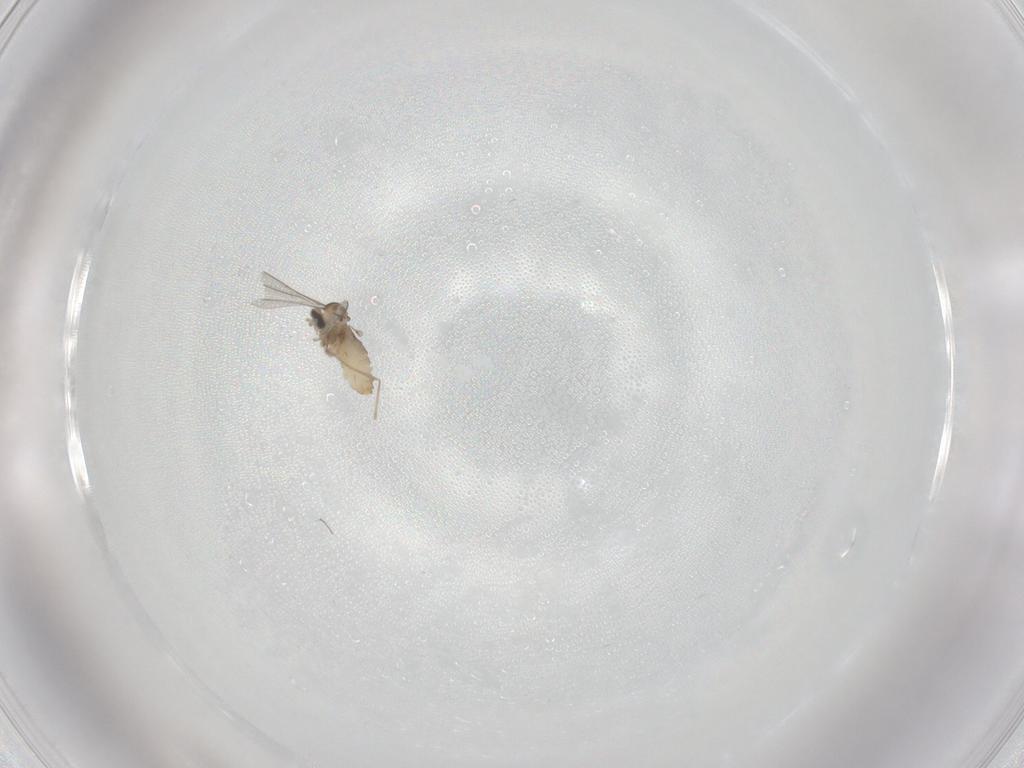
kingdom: Animalia
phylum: Arthropoda
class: Insecta
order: Diptera
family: Cecidomyiidae
